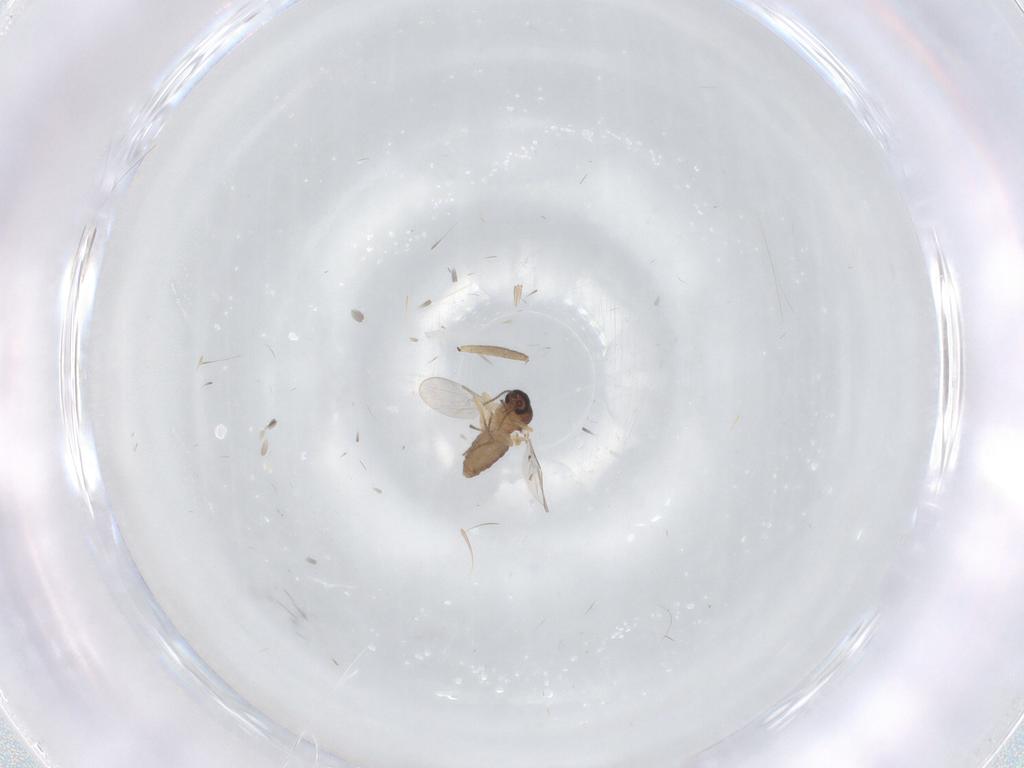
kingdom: Animalia
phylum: Arthropoda
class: Insecta
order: Diptera
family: Ceratopogonidae
